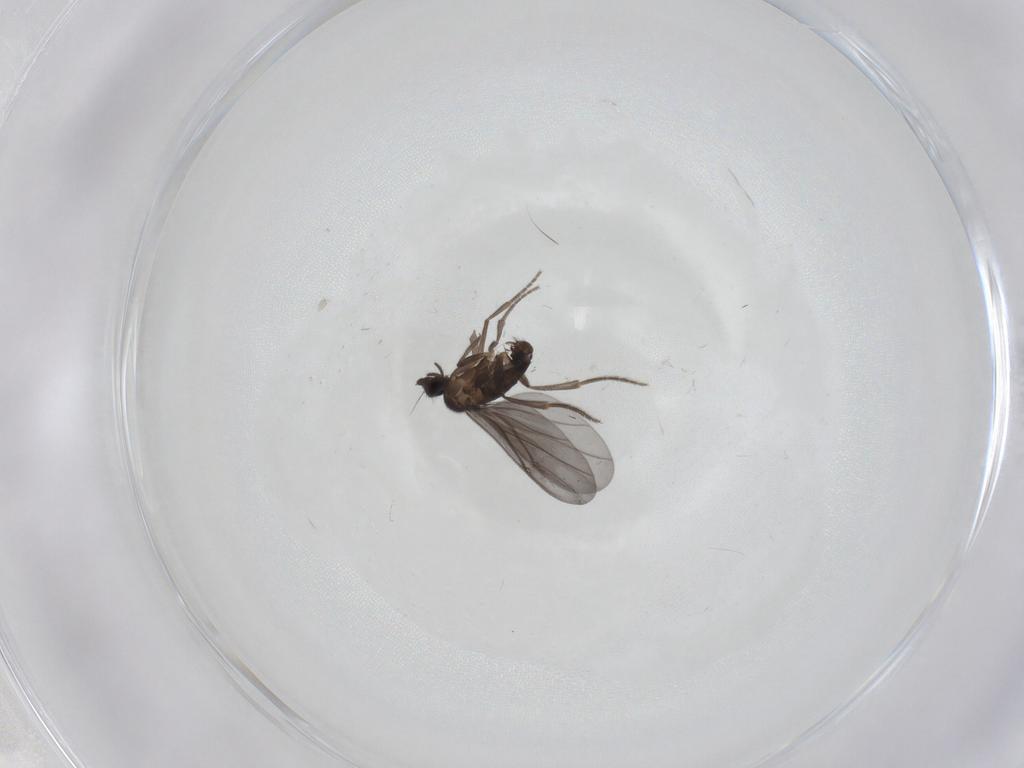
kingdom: Animalia
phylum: Arthropoda
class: Insecta
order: Diptera
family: Phoridae
